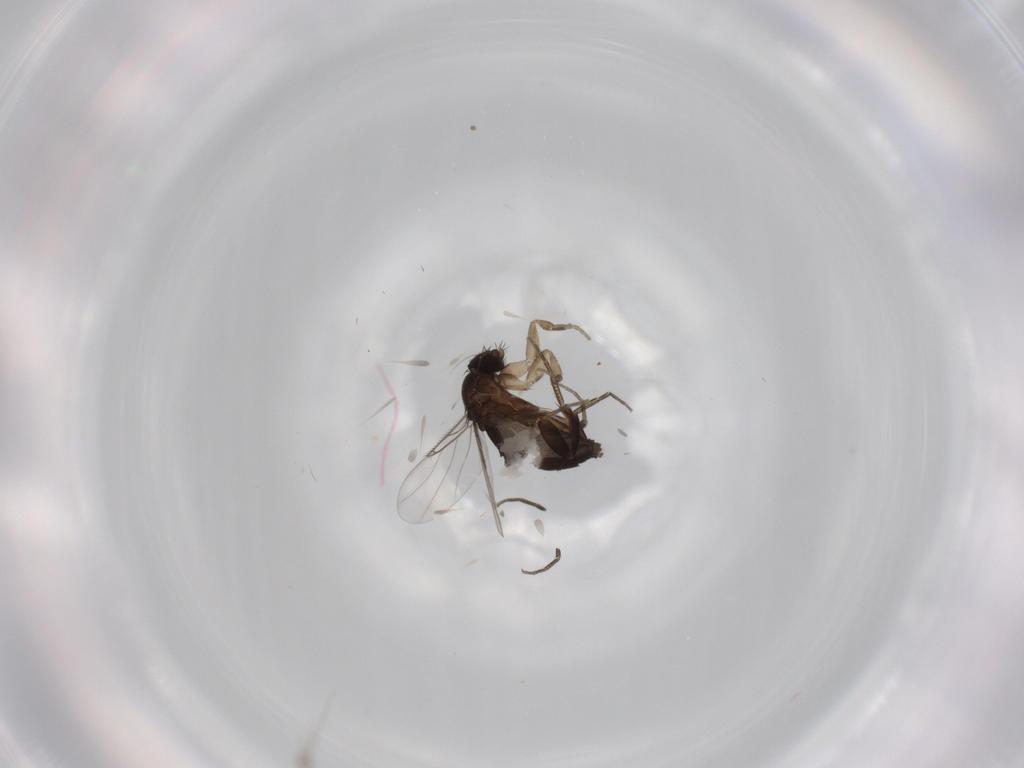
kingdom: Animalia
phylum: Arthropoda
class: Insecta
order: Diptera
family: Phoridae
